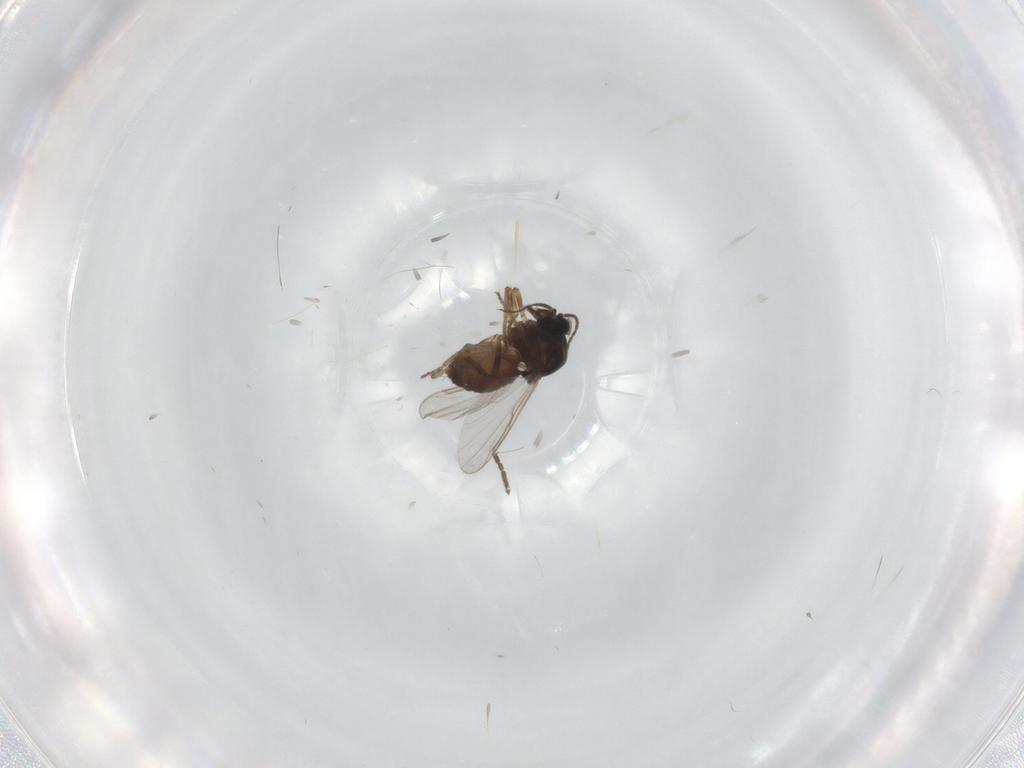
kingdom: Animalia
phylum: Arthropoda
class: Insecta
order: Diptera
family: Ceratopogonidae
